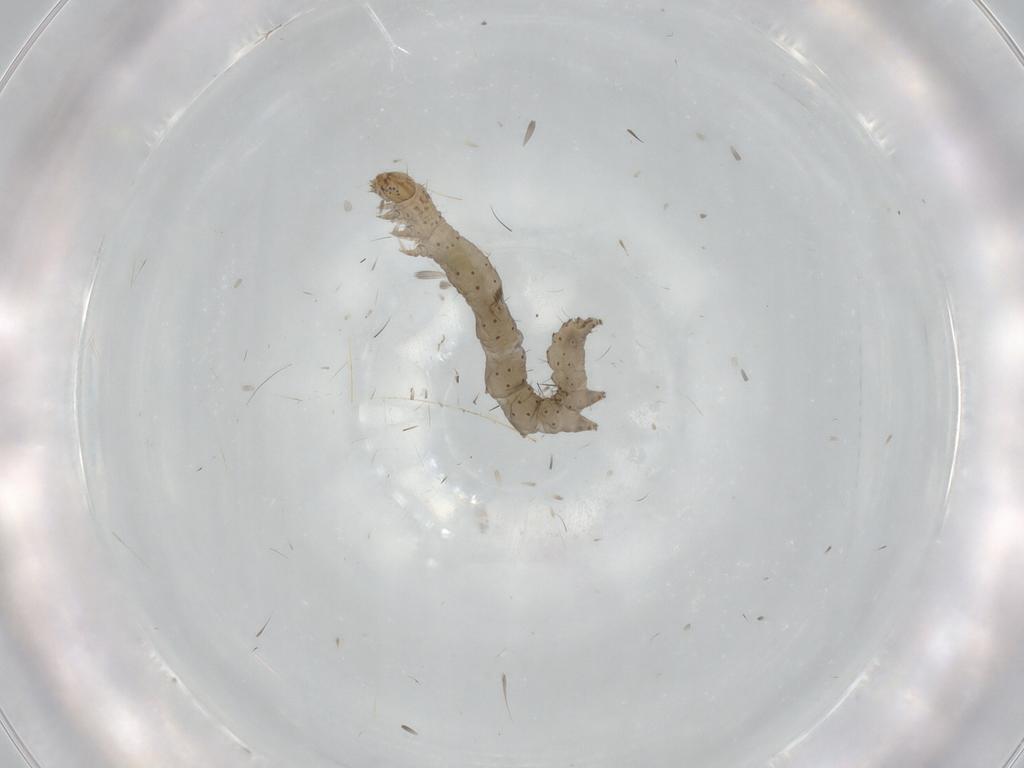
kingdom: Animalia
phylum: Arthropoda
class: Insecta
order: Lepidoptera
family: Erebidae
